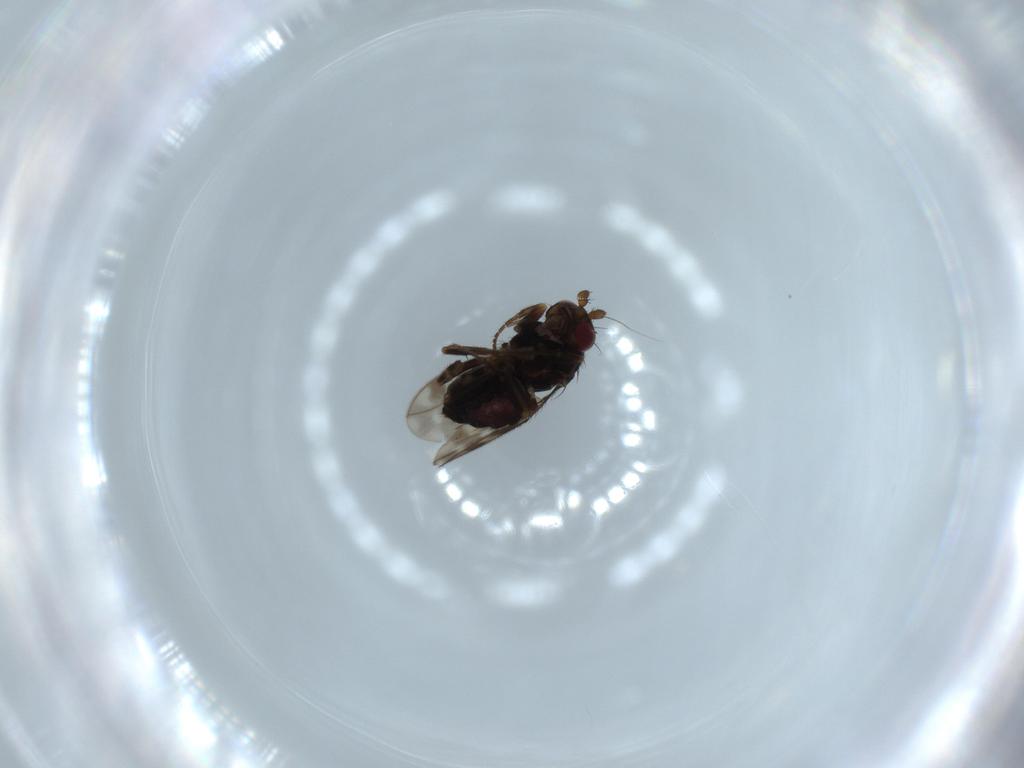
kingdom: Animalia
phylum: Arthropoda
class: Insecta
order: Diptera
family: Sphaeroceridae
